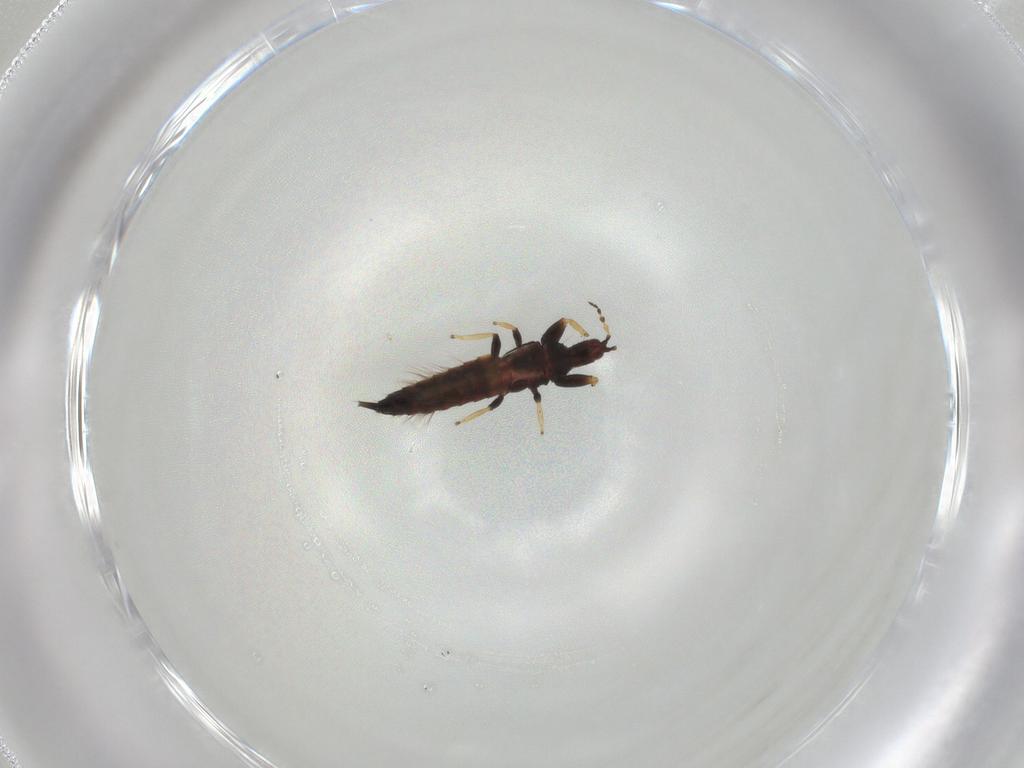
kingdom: Animalia
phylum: Arthropoda
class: Insecta
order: Thysanoptera
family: Phlaeothripidae
